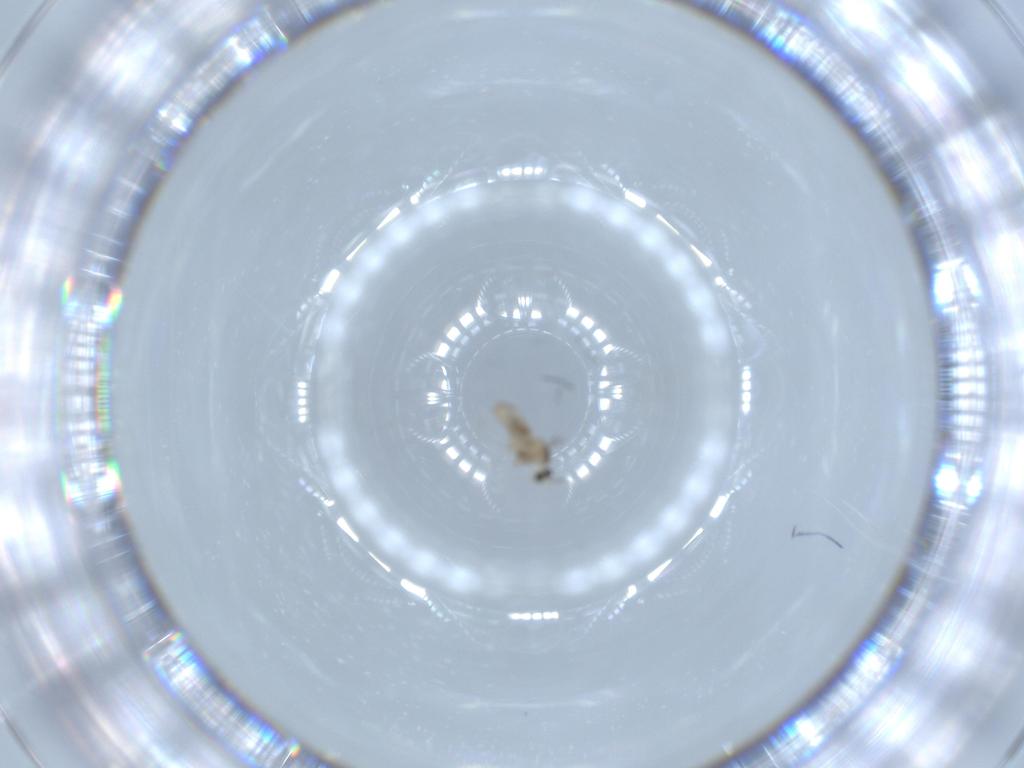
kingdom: Animalia
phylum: Arthropoda
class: Insecta
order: Diptera
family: Cecidomyiidae
